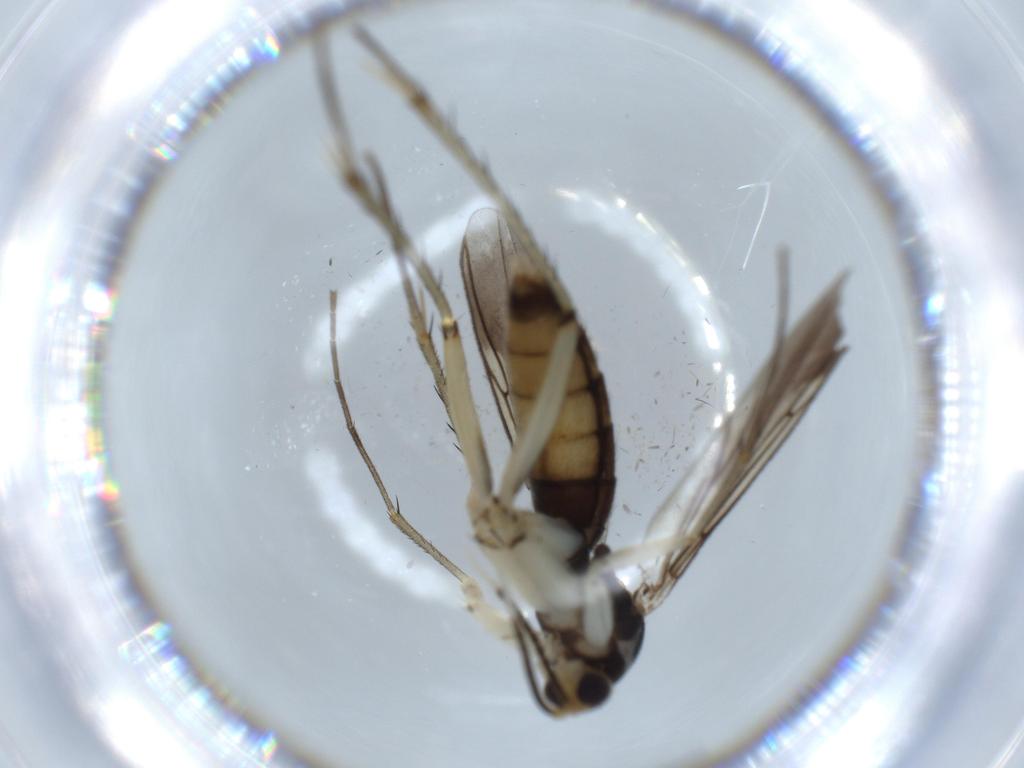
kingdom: Animalia
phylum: Arthropoda
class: Insecta
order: Diptera
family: Mycetophilidae
